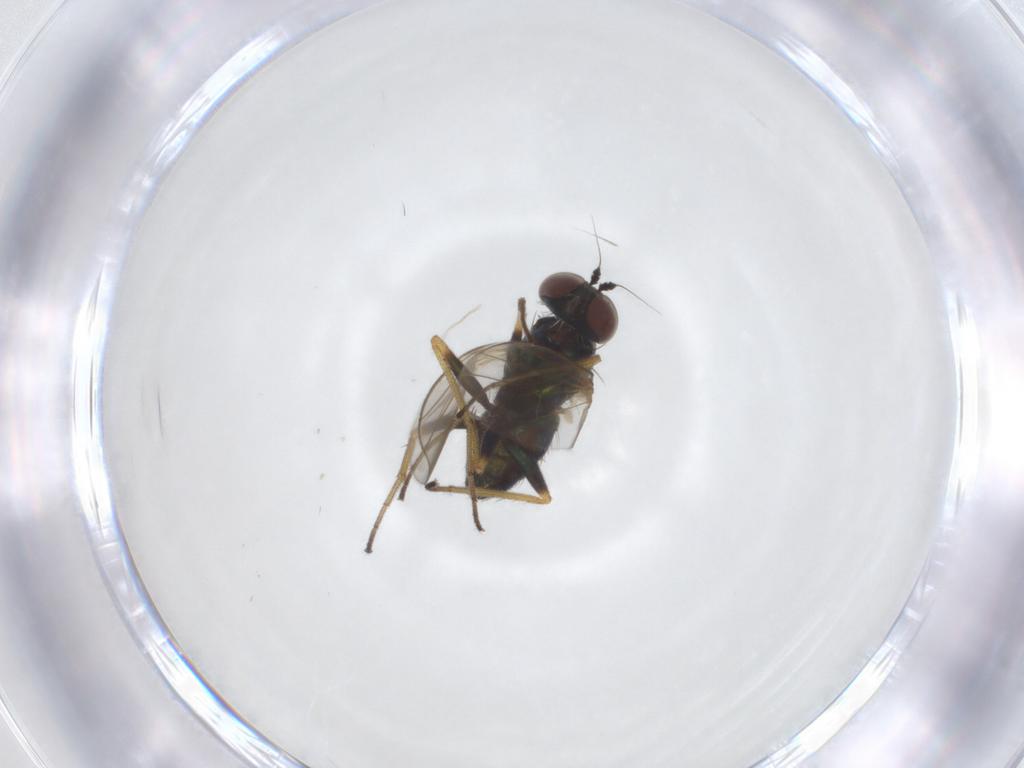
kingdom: Animalia
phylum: Arthropoda
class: Insecta
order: Diptera
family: Dolichopodidae
